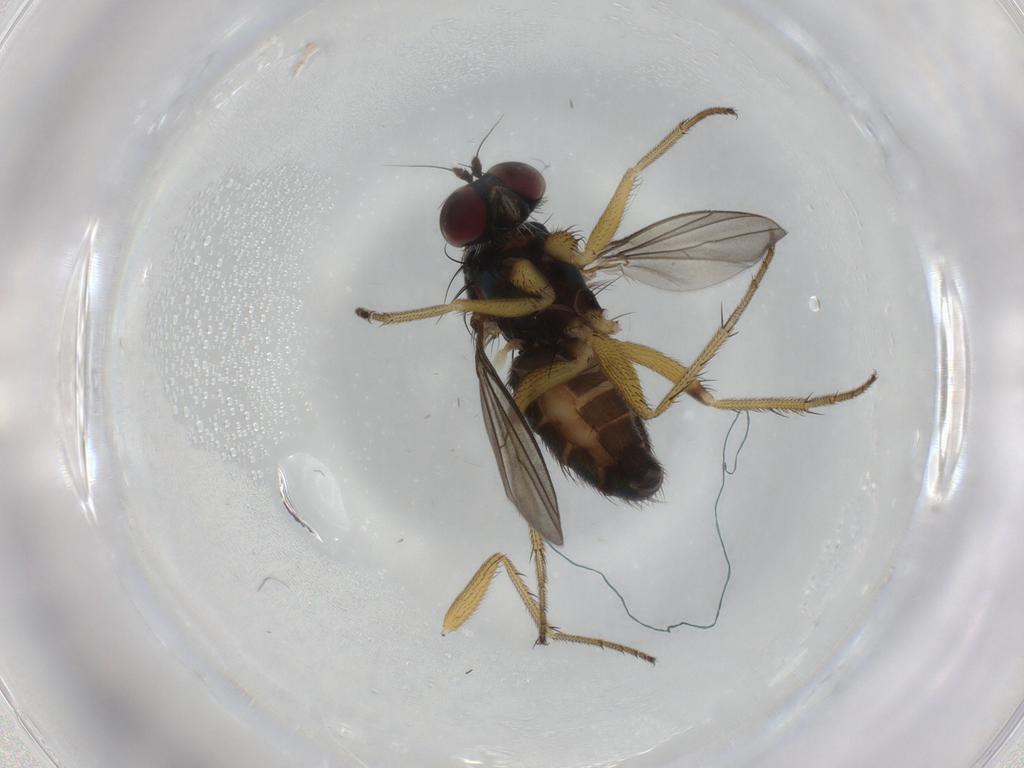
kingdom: Animalia
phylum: Arthropoda
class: Insecta
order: Diptera
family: Dolichopodidae
